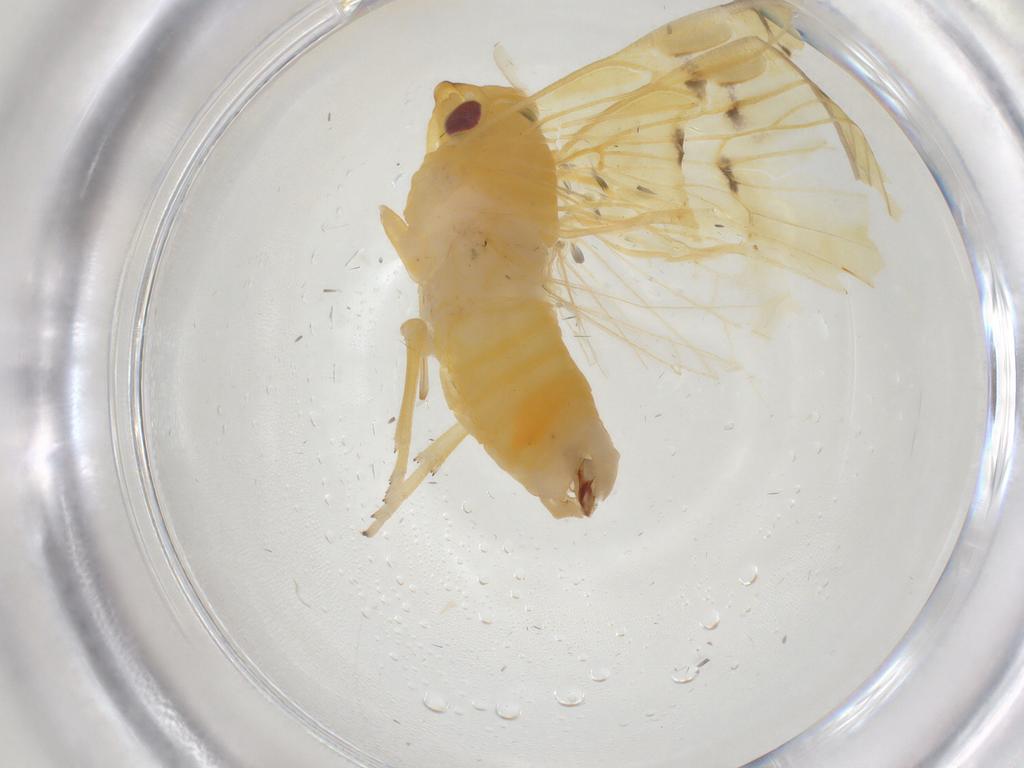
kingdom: Animalia
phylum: Arthropoda
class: Insecta
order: Hemiptera
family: Cixiidae
